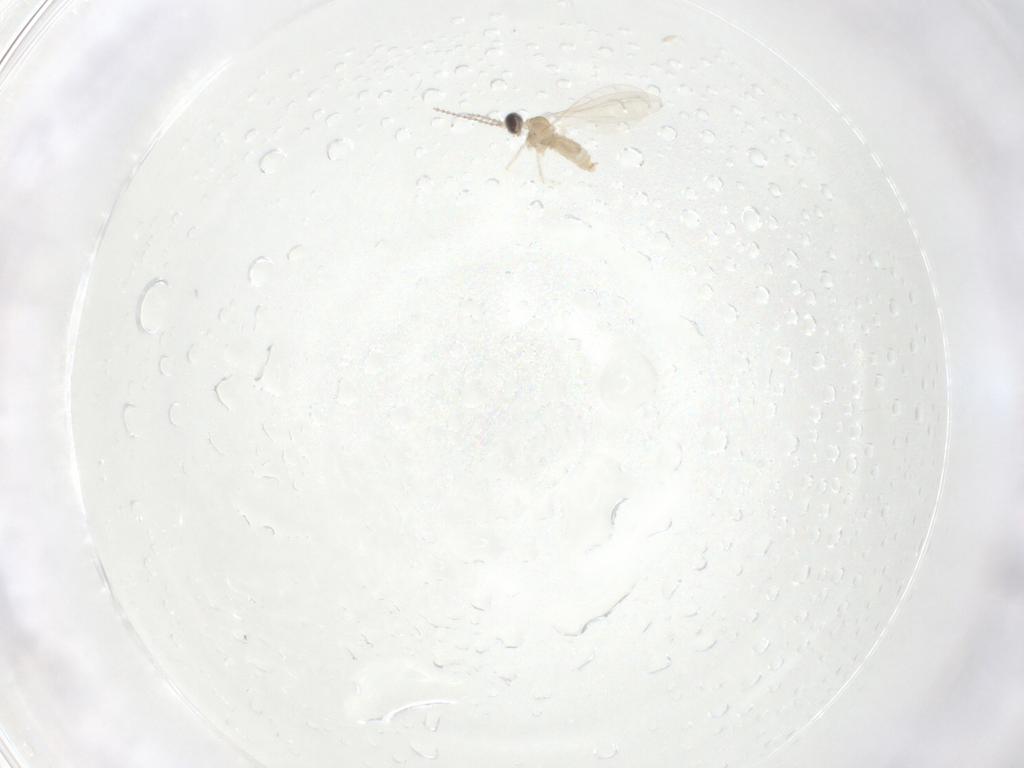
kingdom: Animalia
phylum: Arthropoda
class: Insecta
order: Diptera
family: Cecidomyiidae
